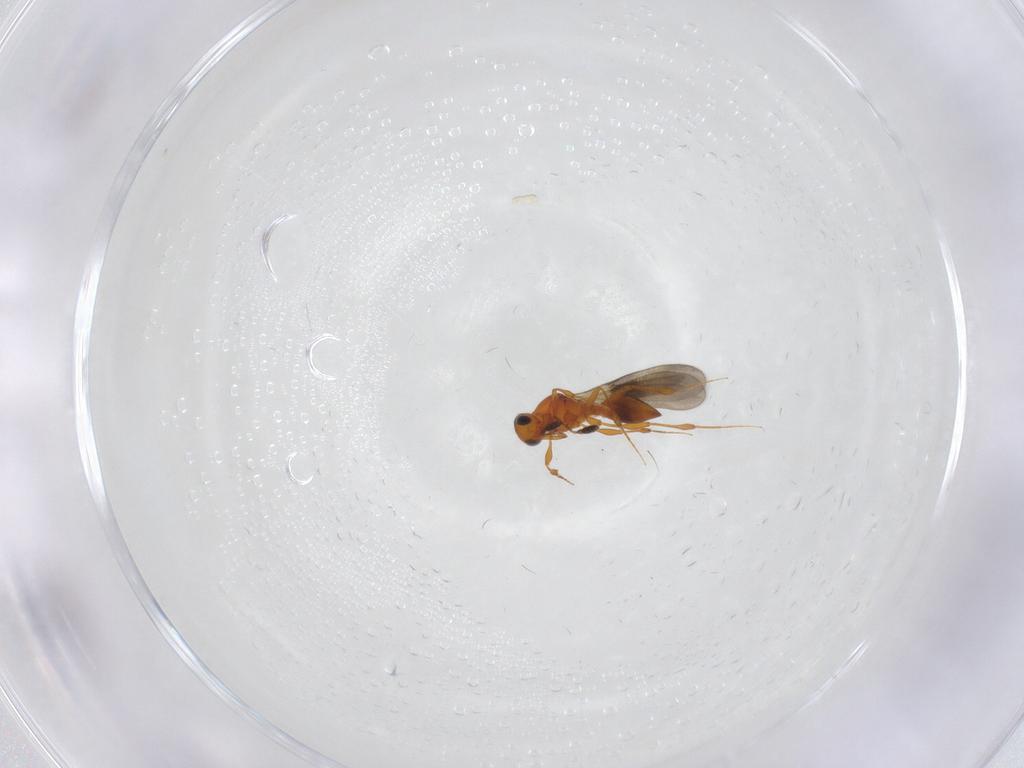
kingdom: Animalia
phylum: Arthropoda
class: Insecta
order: Hymenoptera
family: Platygastridae
